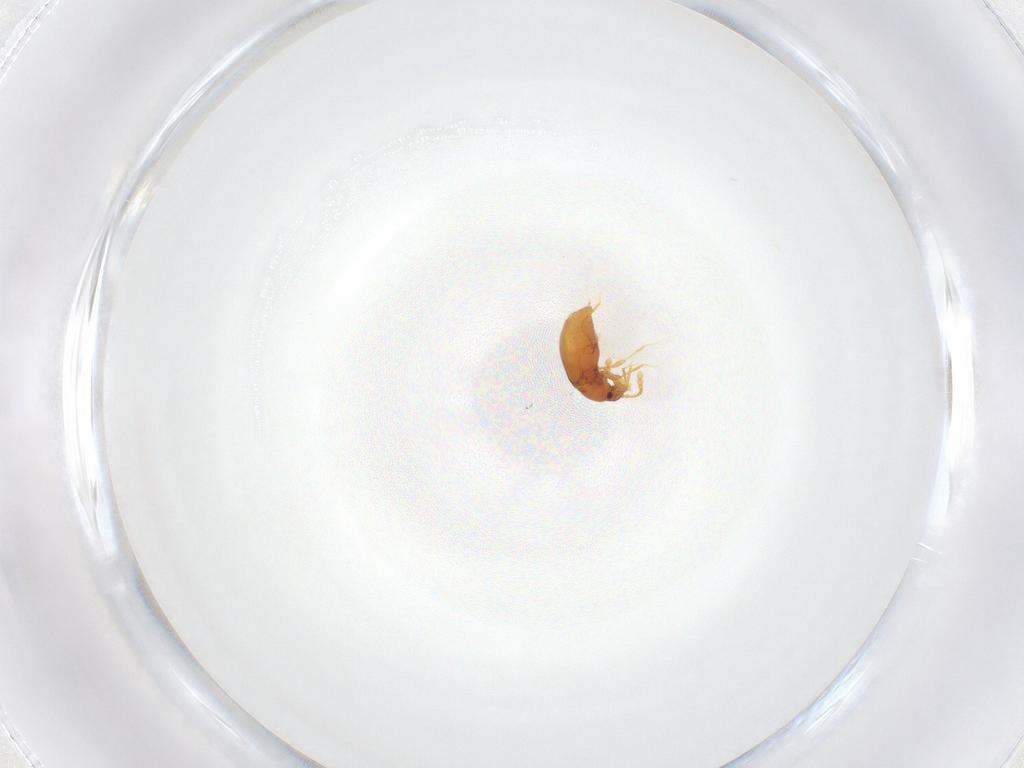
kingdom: Animalia
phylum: Arthropoda
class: Insecta
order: Coleoptera
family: Staphylinidae
